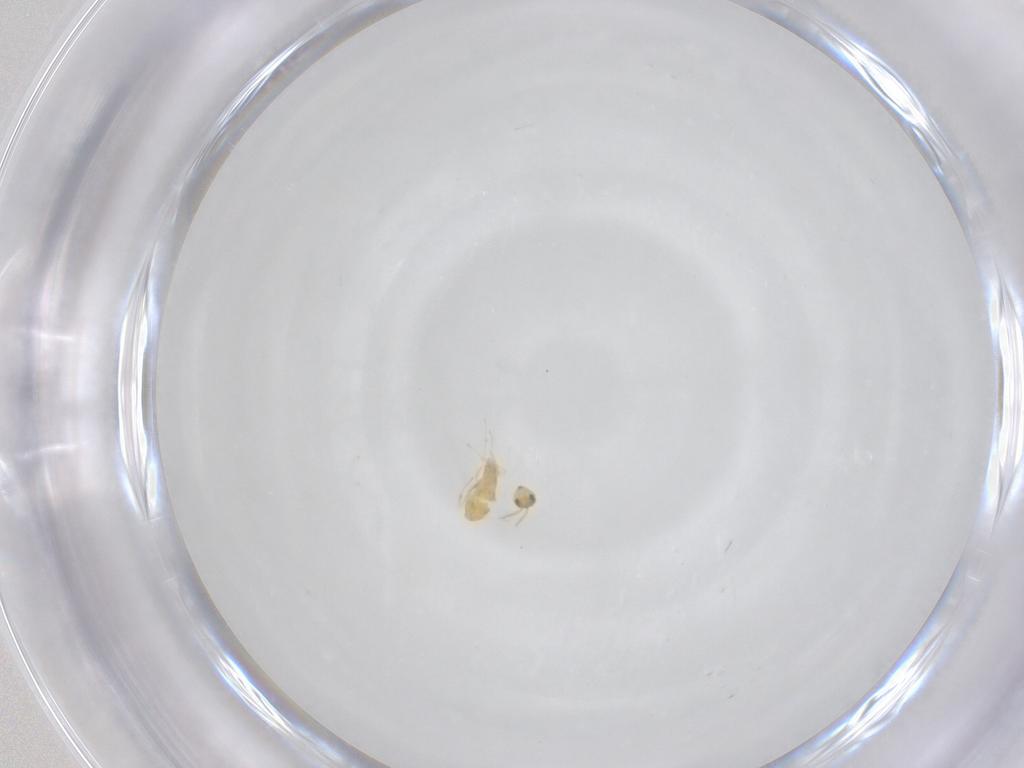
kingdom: Animalia
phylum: Arthropoda
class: Insecta
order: Hymenoptera
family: Aphelinidae
